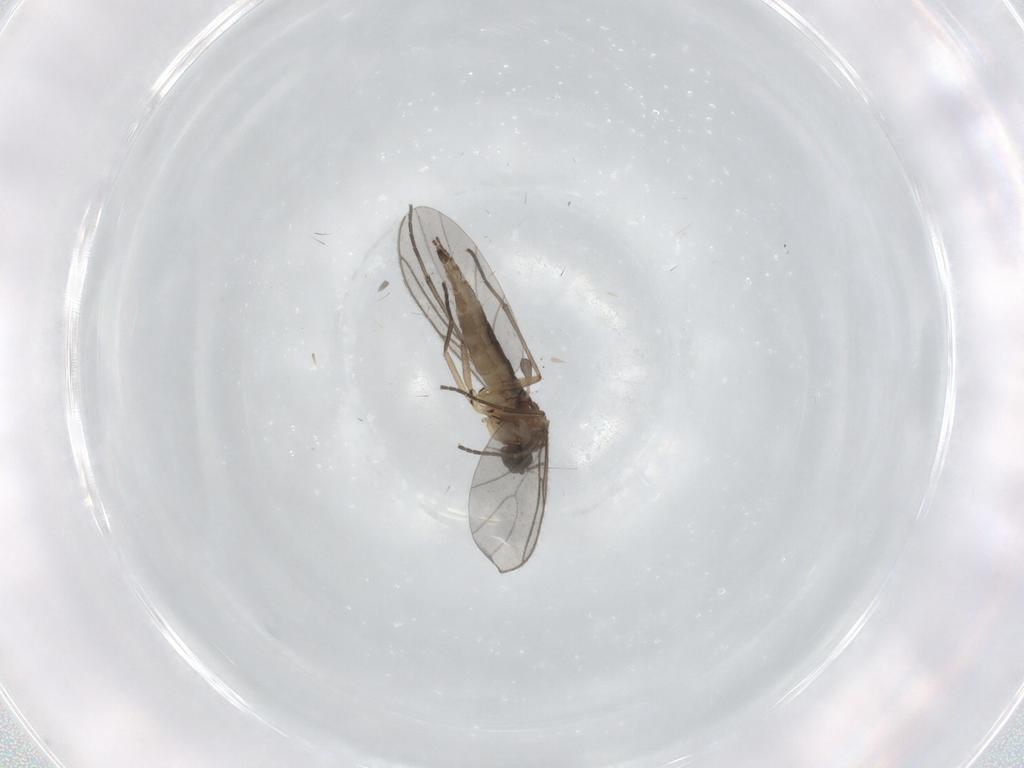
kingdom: Animalia
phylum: Arthropoda
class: Insecta
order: Diptera
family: Sciaridae
